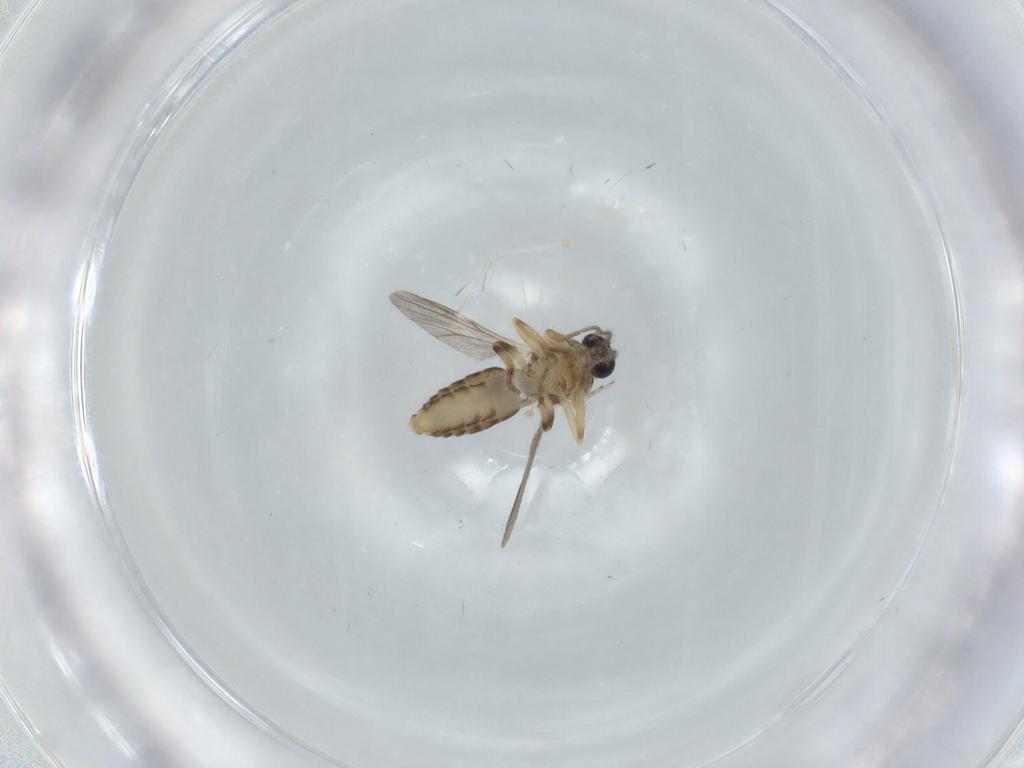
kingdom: Animalia
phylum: Arthropoda
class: Insecta
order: Diptera
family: Ceratopogonidae
